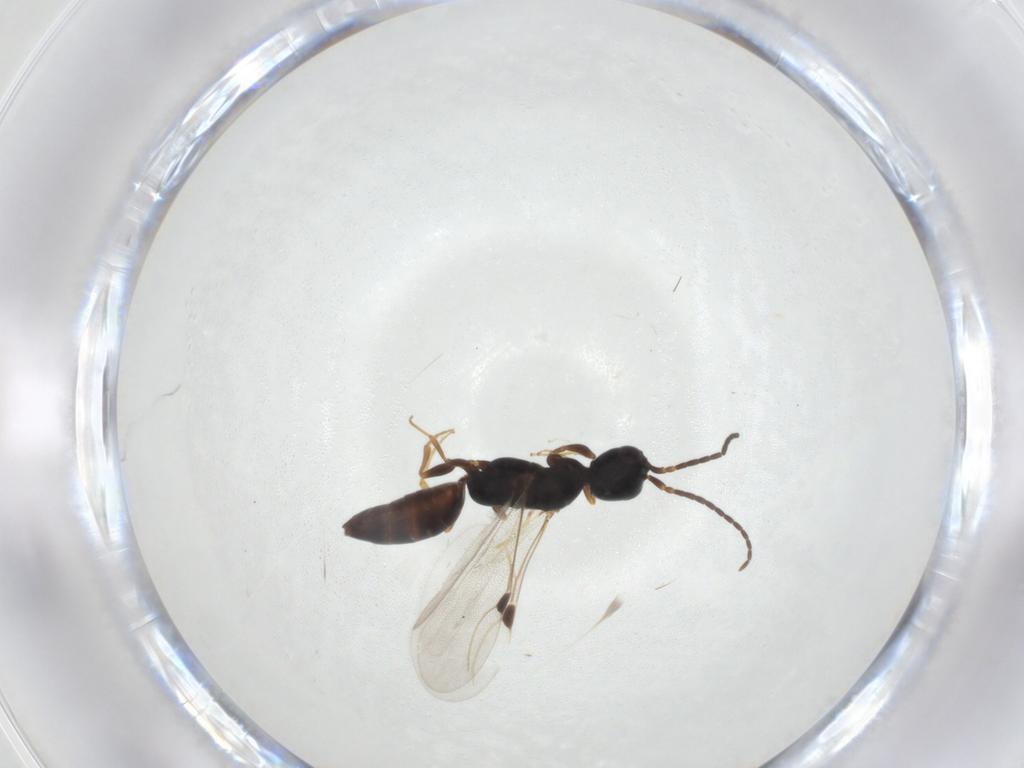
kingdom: Animalia
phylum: Arthropoda
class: Insecta
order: Hymenoptera
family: Bethylidae
